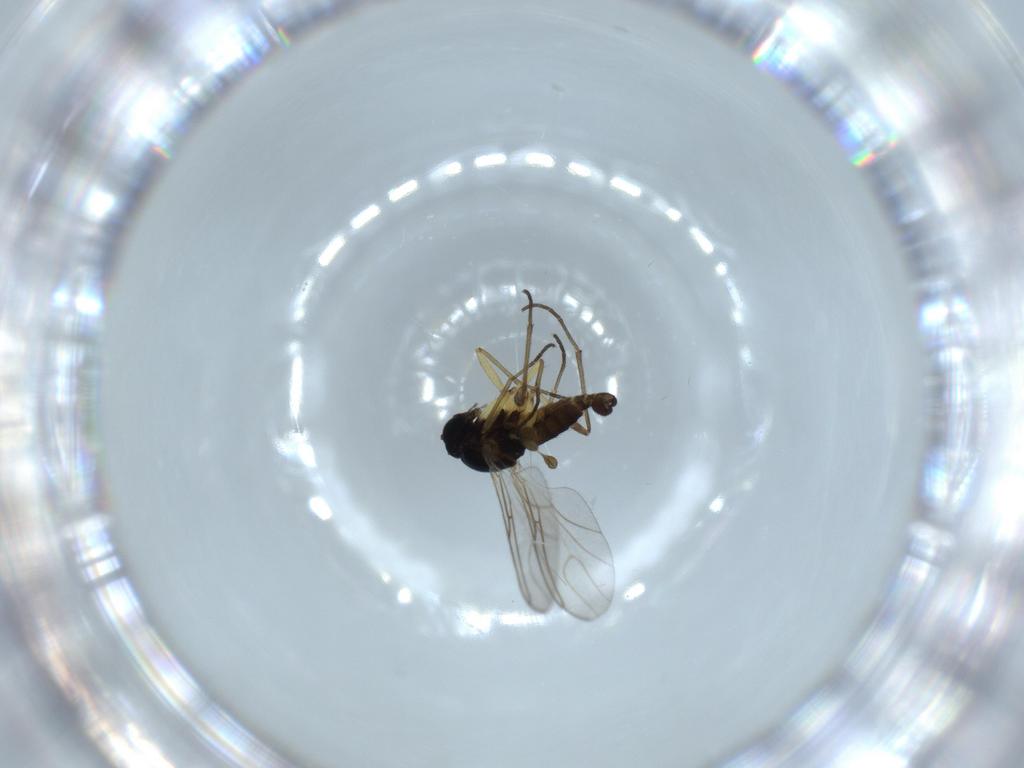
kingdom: Animalia
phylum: Arthropoda
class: Insecta
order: Diptera
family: Sciaridae
